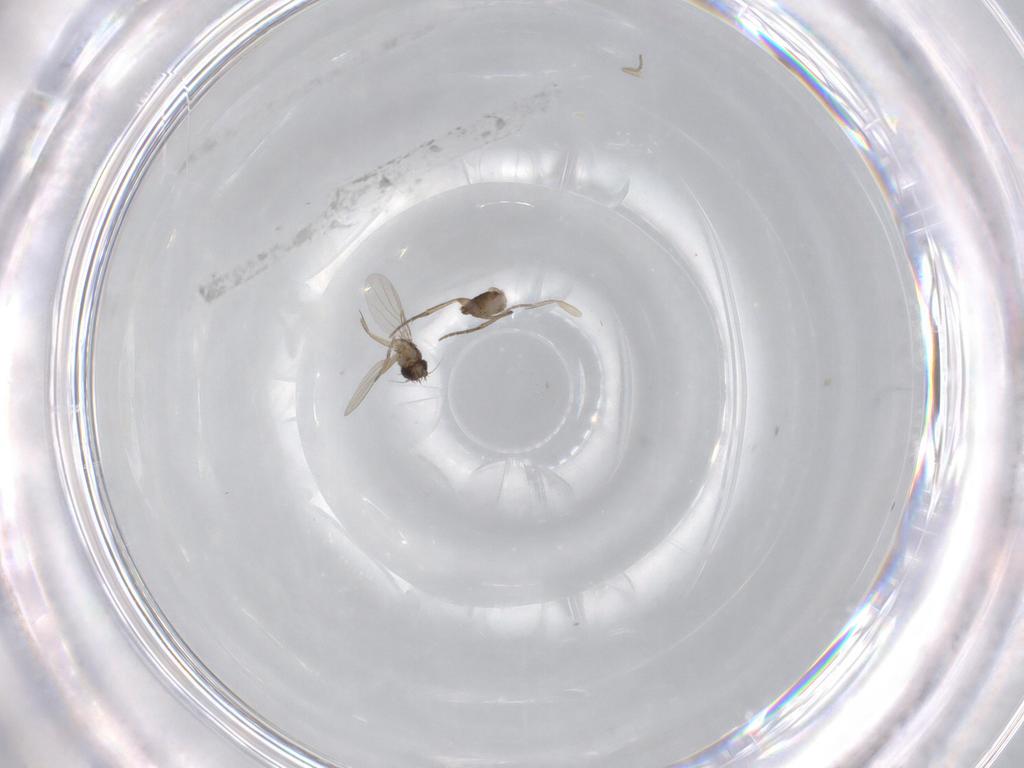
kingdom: Animalia
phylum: Arthropoda
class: Insecta
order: Diptera
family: Phoridae
